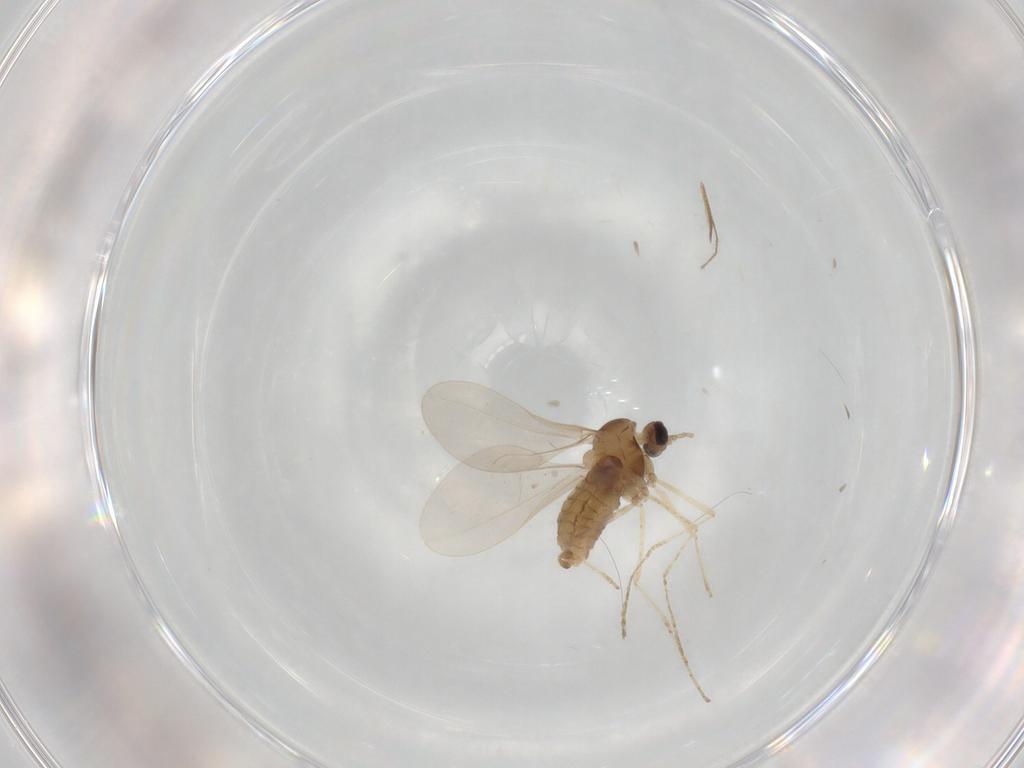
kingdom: Animalia
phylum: Arthropoda
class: Insecta
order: Diptera
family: Cecidomyiidae
